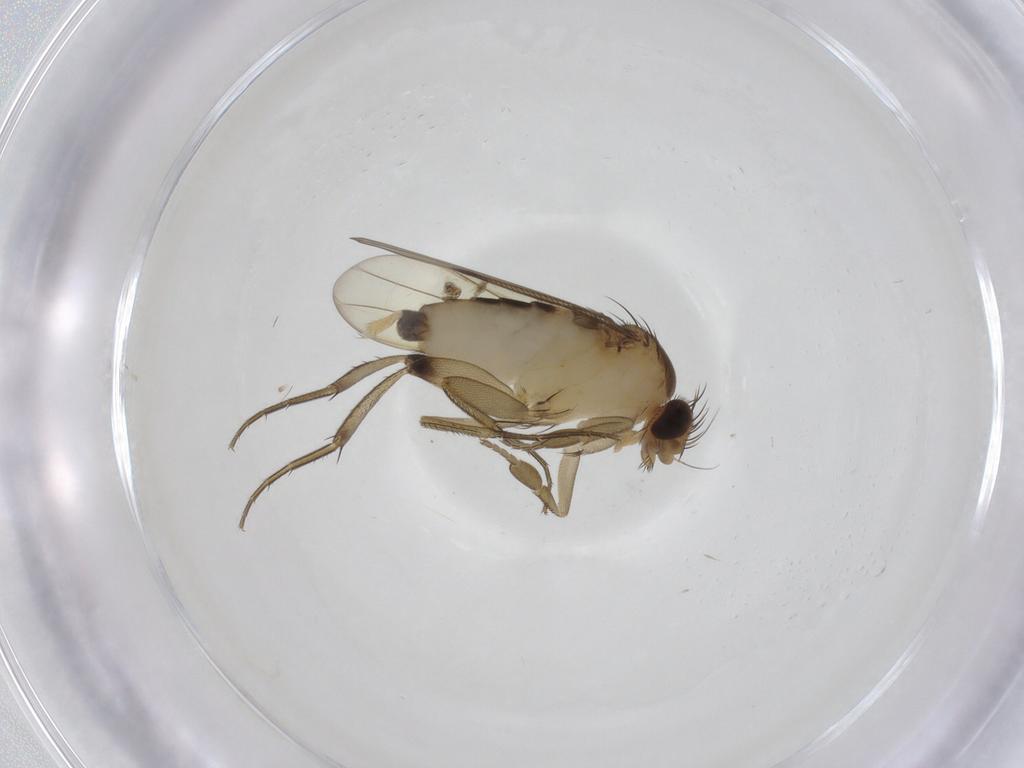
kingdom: Animalia
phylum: Arthropoda
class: Insecta
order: Diptera
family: Phoridae
